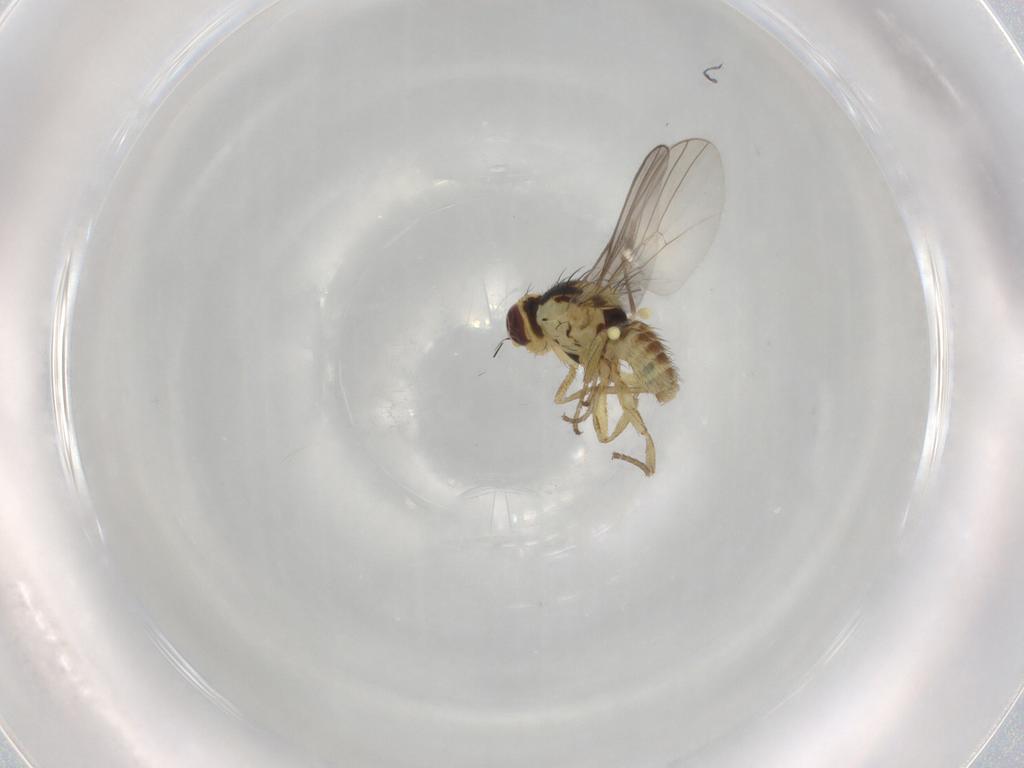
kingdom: Animalia
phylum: Arthropoda
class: Insecta
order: Diptera
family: Agromyzidae
